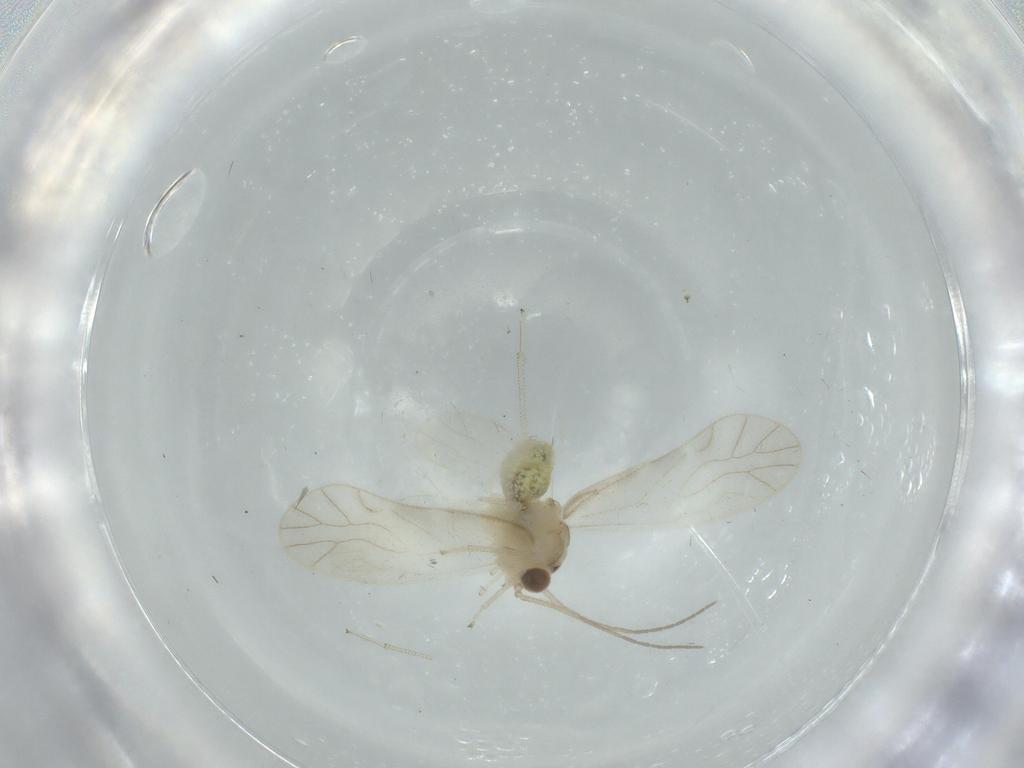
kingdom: Animalia
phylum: Arthropoda
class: Insecta
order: Psocodea
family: Caeciliusidae
